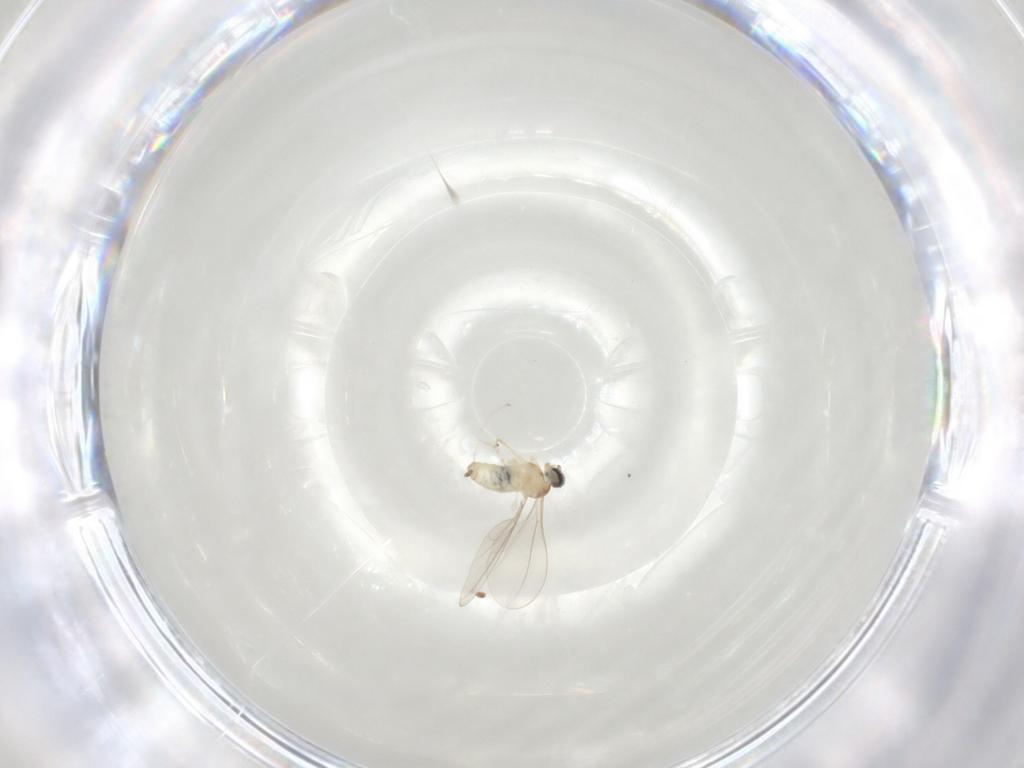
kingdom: Animalia
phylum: Arthropoda
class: Insecta
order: Diptera
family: Cecidomyiidae
